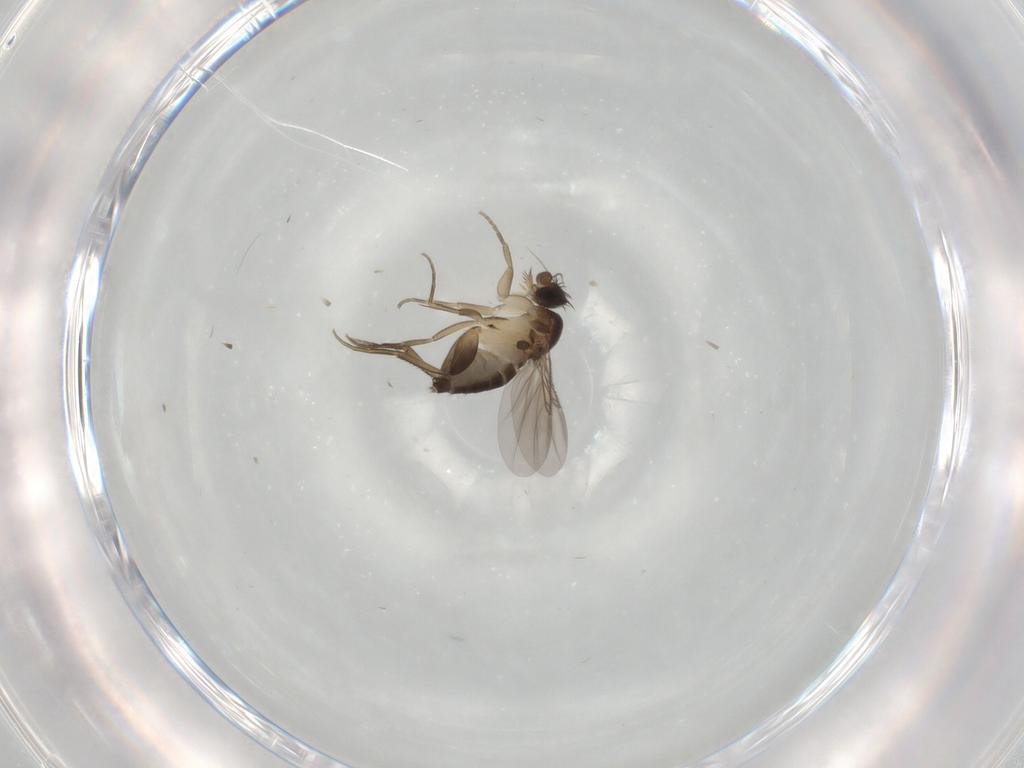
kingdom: Animalia
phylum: Arthropoda
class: Insecta
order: Diptera
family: Phoridae
